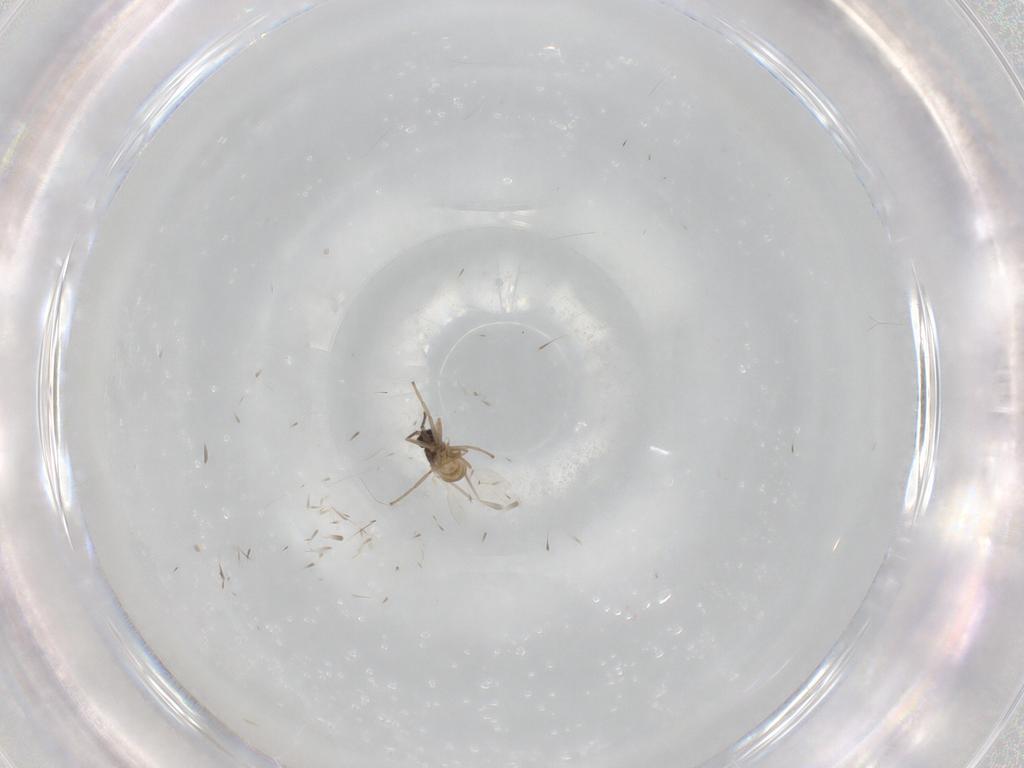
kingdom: Animalia
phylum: Arthropoda
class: Insecta
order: Diptera
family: Cecidomyiidae
